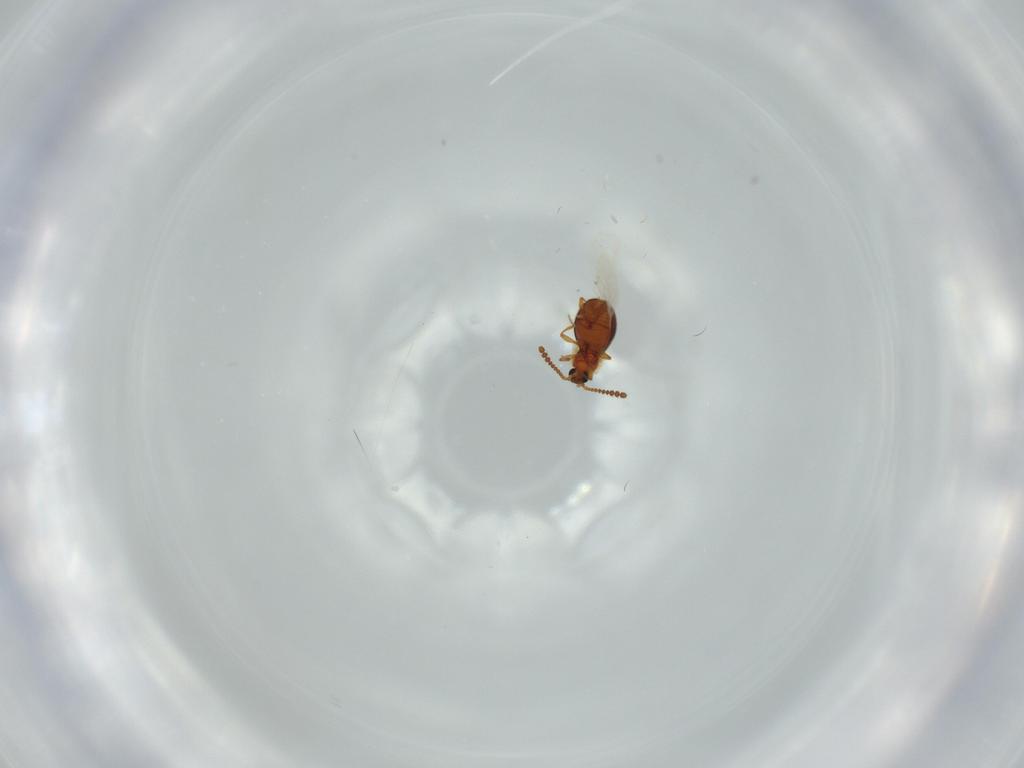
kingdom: Animalia
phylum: Arthropoda
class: Insecta
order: Coleoptera
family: Staphylinidae
